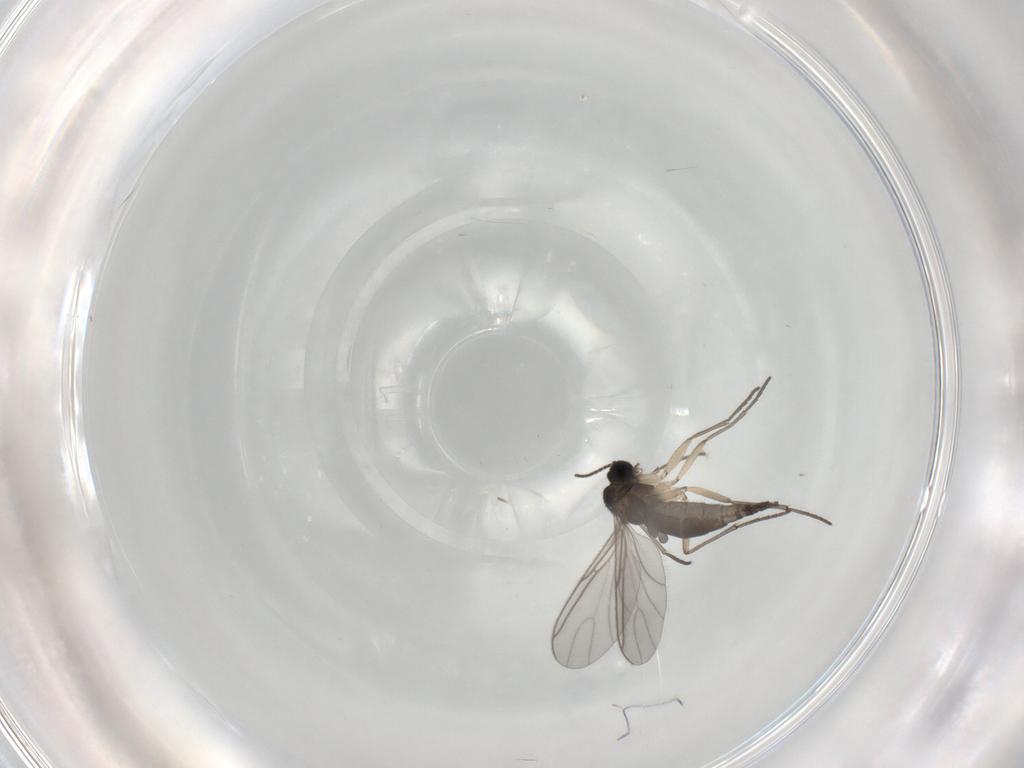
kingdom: Animalia
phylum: Arthropoda
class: Insecta
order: Diptera
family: Sciaridae
